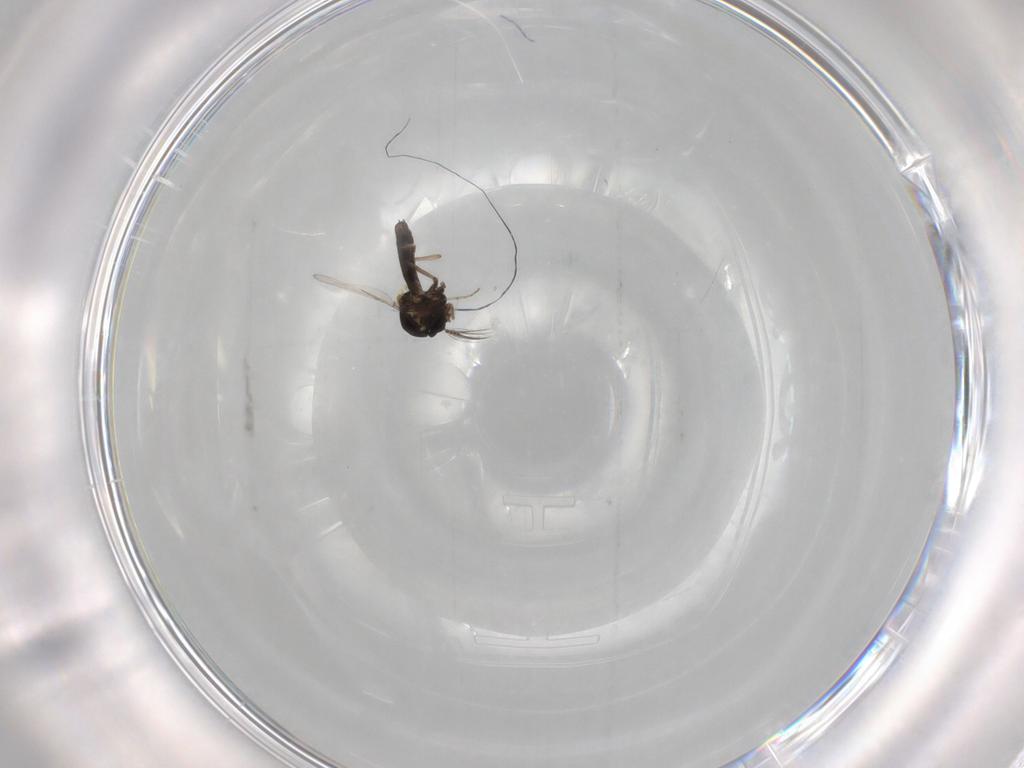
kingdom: Animalia
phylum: Arthropoda
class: Insecta
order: Diptera
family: Ceratopogonidae
